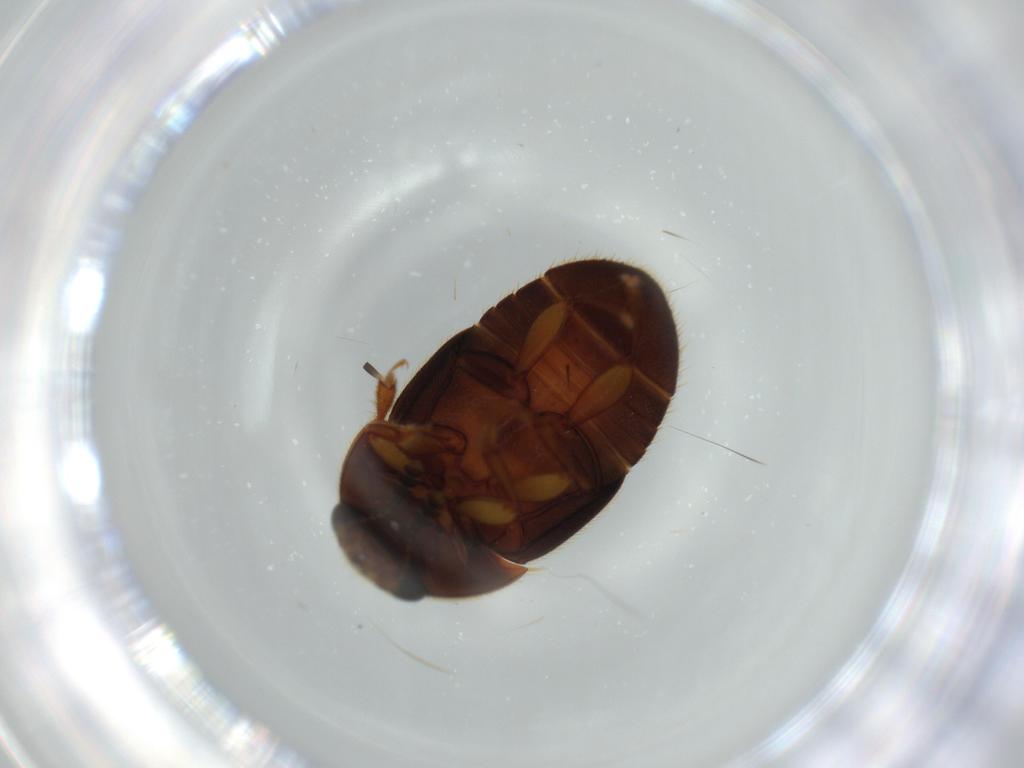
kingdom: Animalia
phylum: Arthropoda
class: Insecta
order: Coleoptera
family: Nitidulidae
